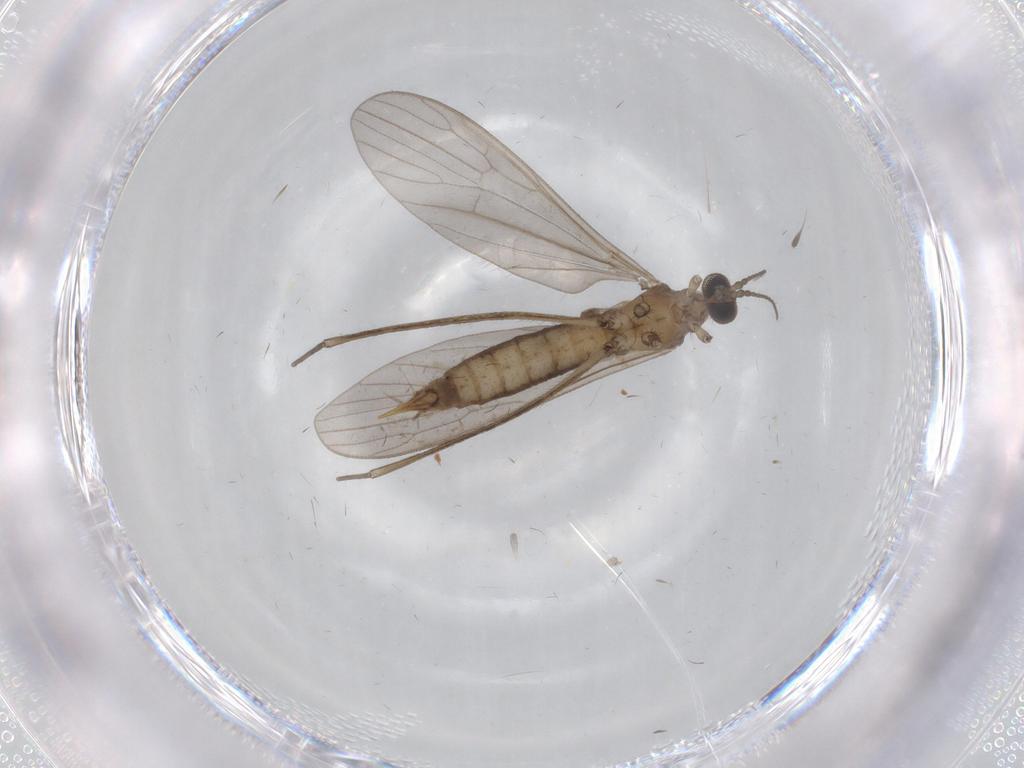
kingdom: Animalia
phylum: Arthropoda
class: Insecta
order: Diptera
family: Limoniidae
